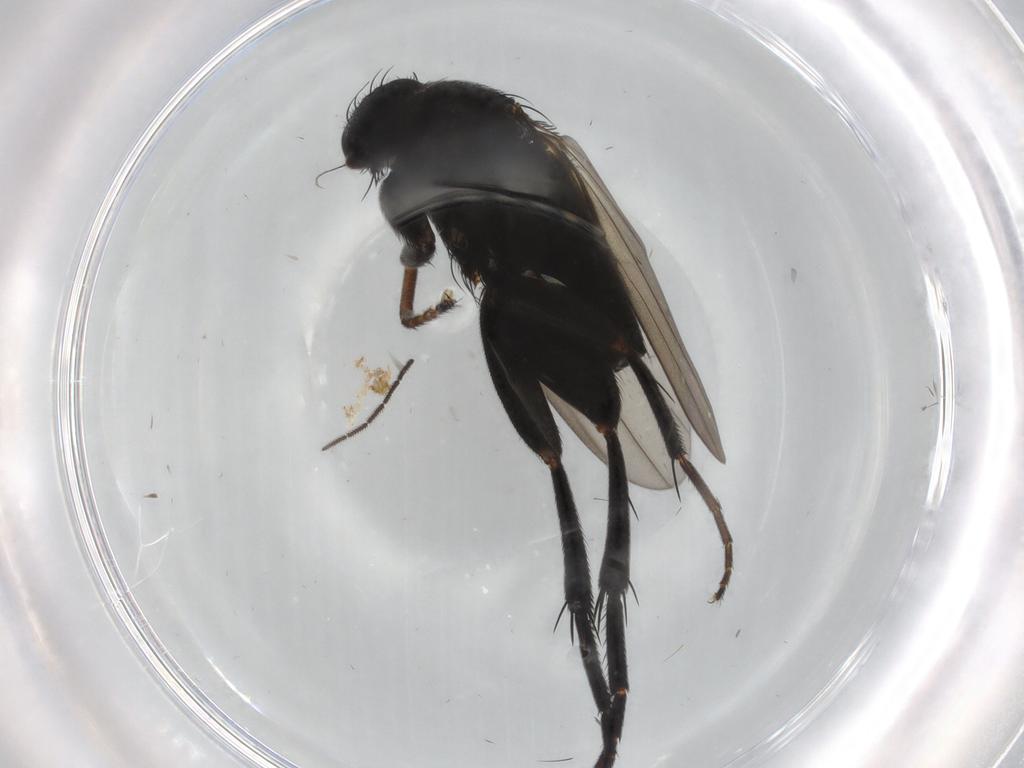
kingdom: Animalia
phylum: Arthropoda
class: Insecta
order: Diptera
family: Phoridae
